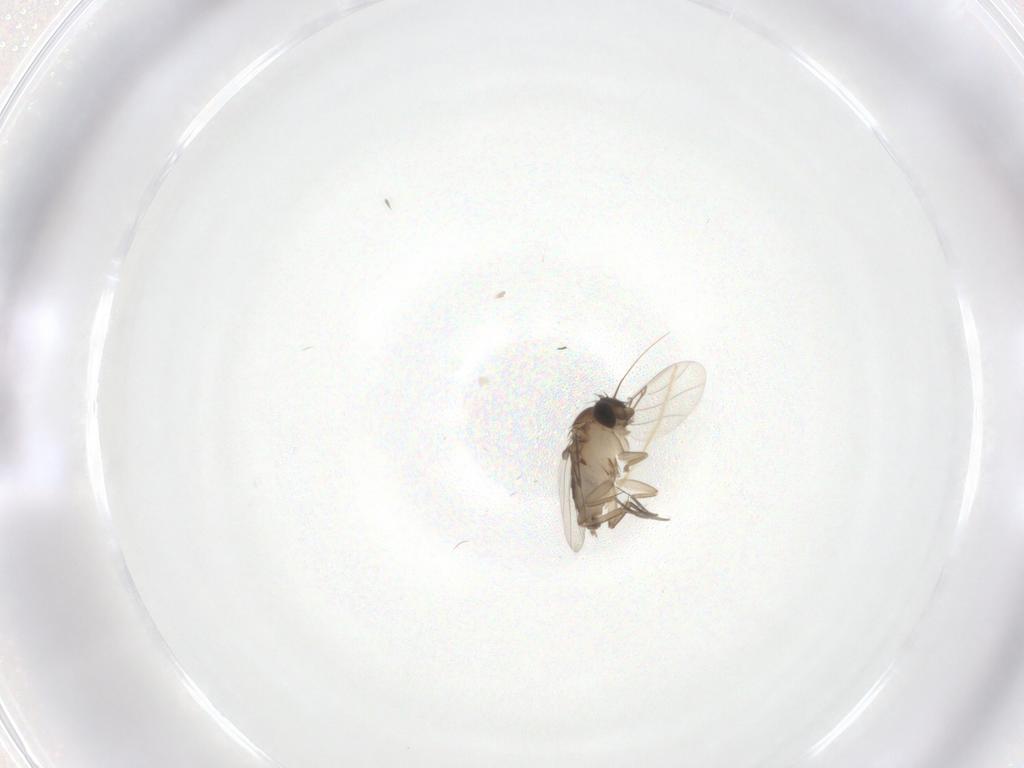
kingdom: Animalia
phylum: Arthropoda
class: Insecta
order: Diptera
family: Phoridae
